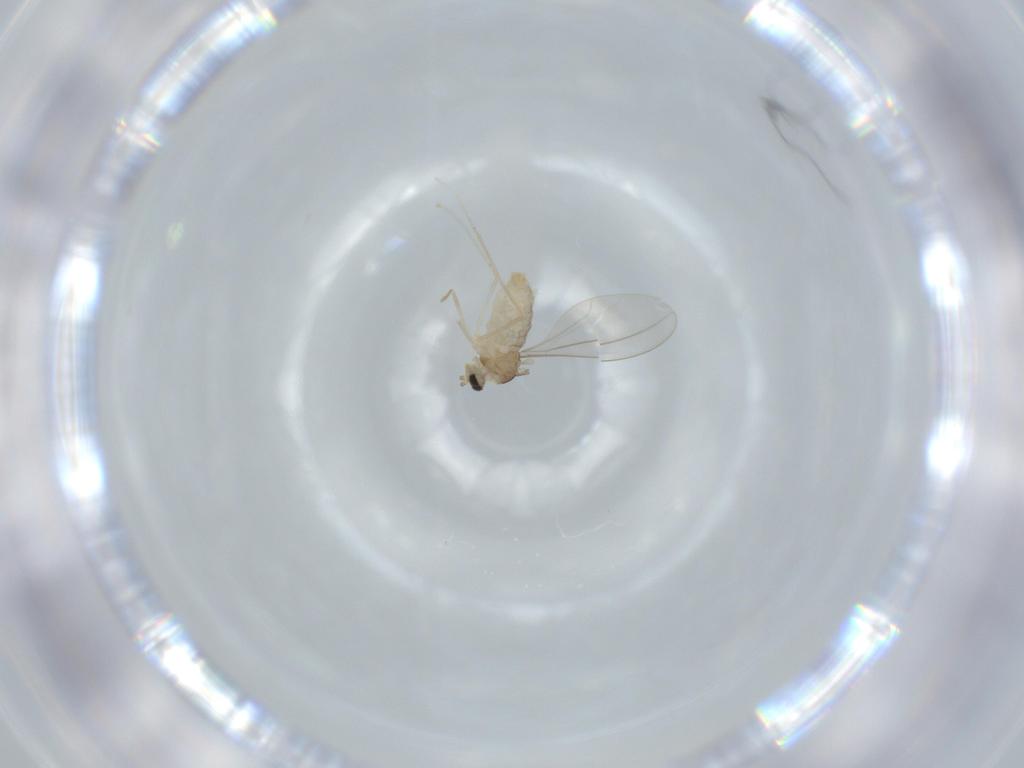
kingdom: Animalia
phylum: Arthropoda
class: Insecta
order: Diptera
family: Cecidomyiidae
